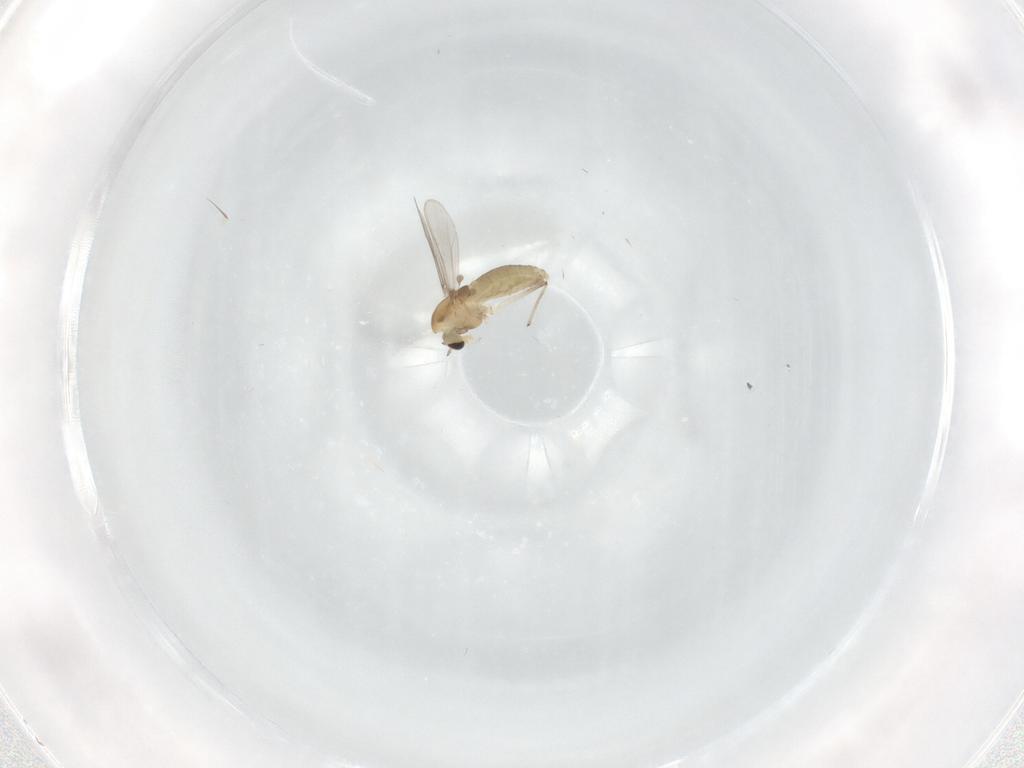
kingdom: Animalia
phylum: Arthropoda
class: Insecta
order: Diptera
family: Chironomidae
